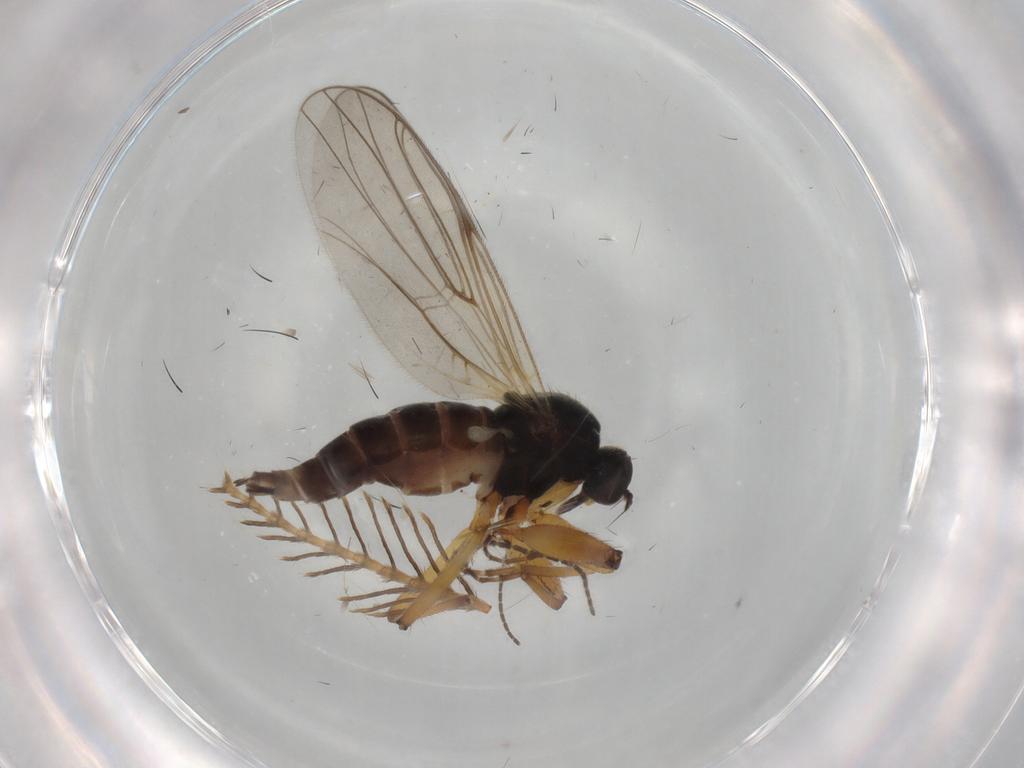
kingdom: Animalia
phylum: Arthropoda
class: Insecta
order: Diptera
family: Hybotidae
